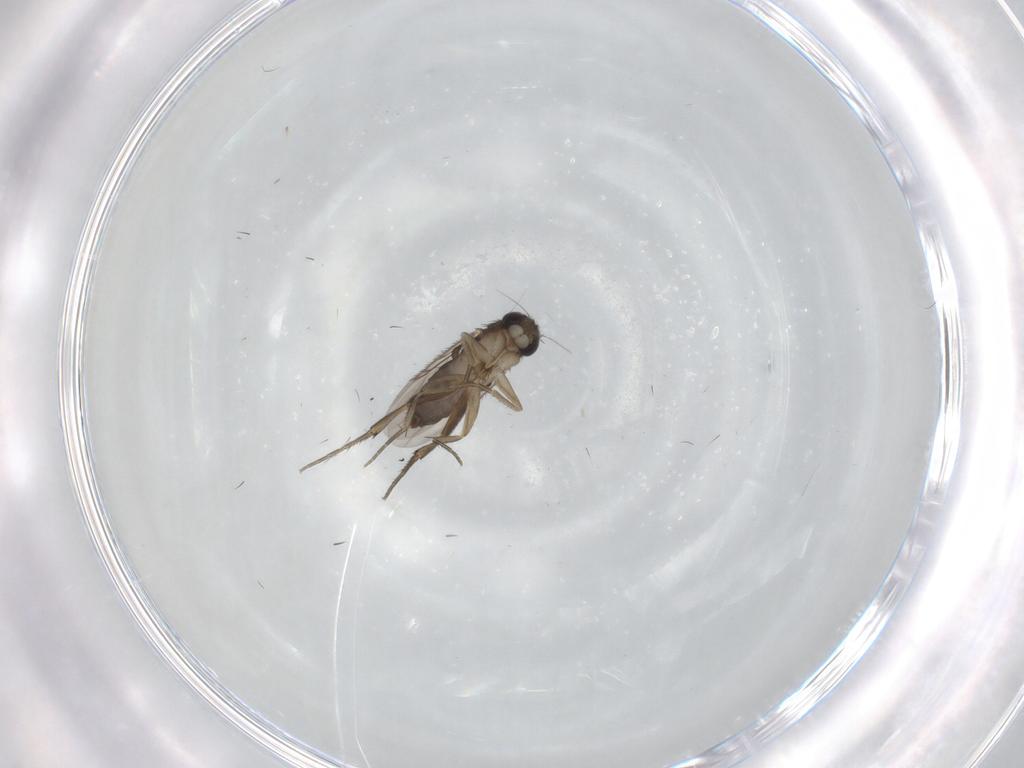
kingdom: Animalia
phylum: Arthropoda
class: Insecta
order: Diptera
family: Phoridae
